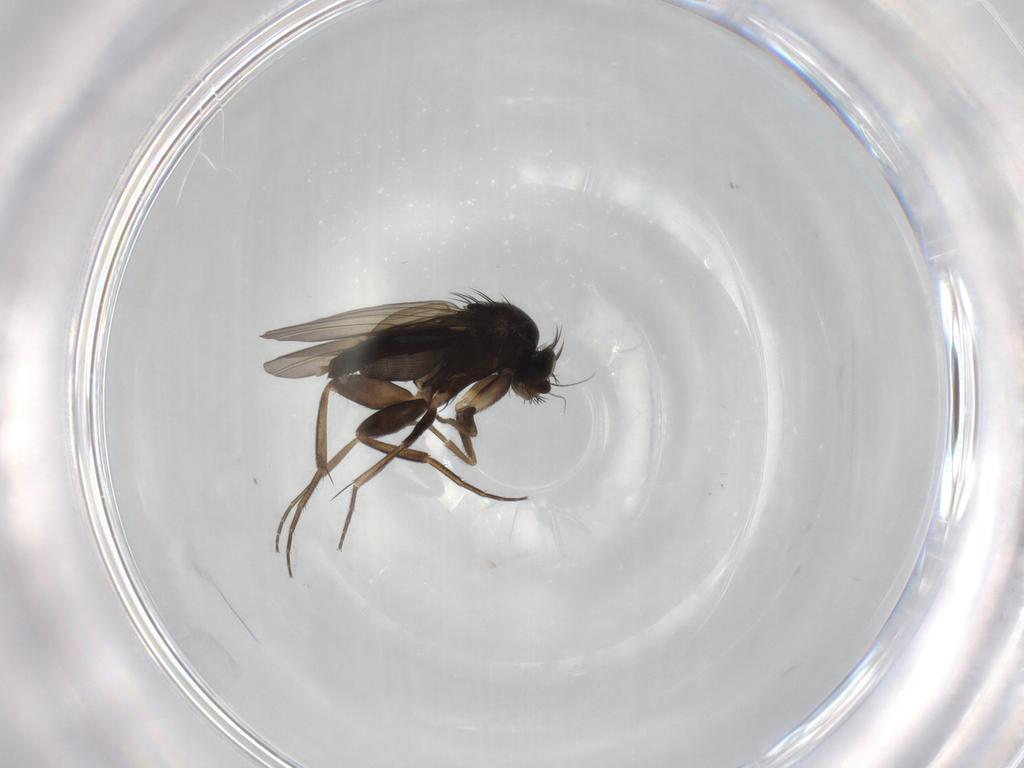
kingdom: Animalia
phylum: Arthropoda
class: Insecta
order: Diptera
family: Phoridae
